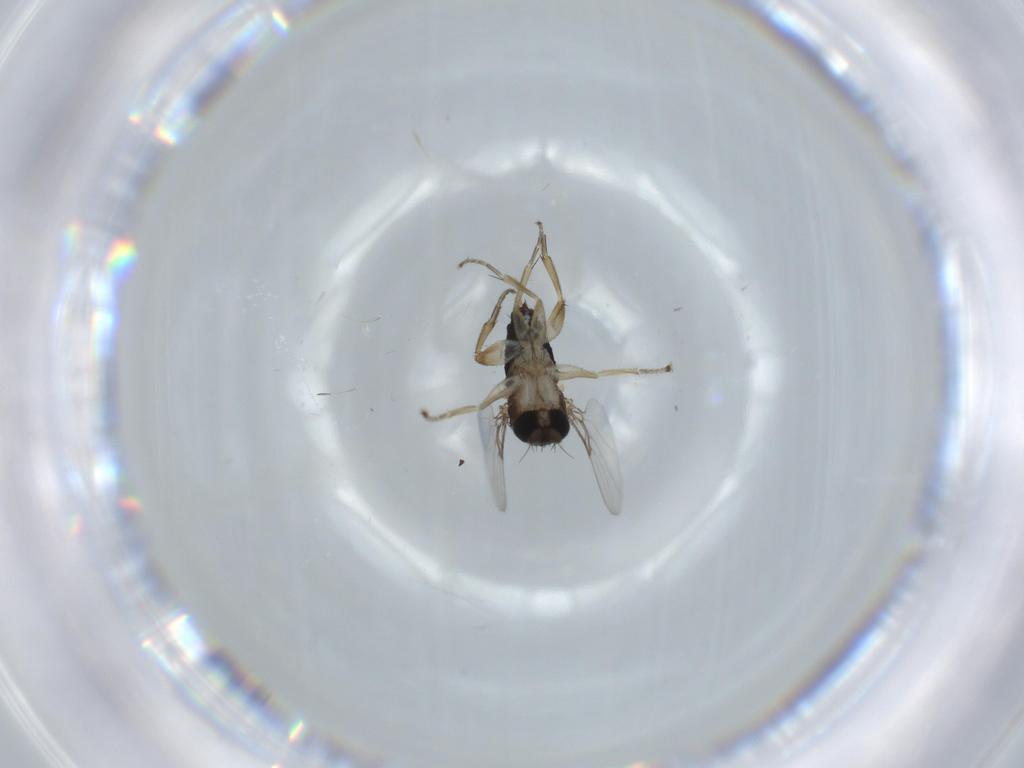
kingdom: Animalia
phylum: Arthropoda
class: Insecta
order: Diptera
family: Phoridae
